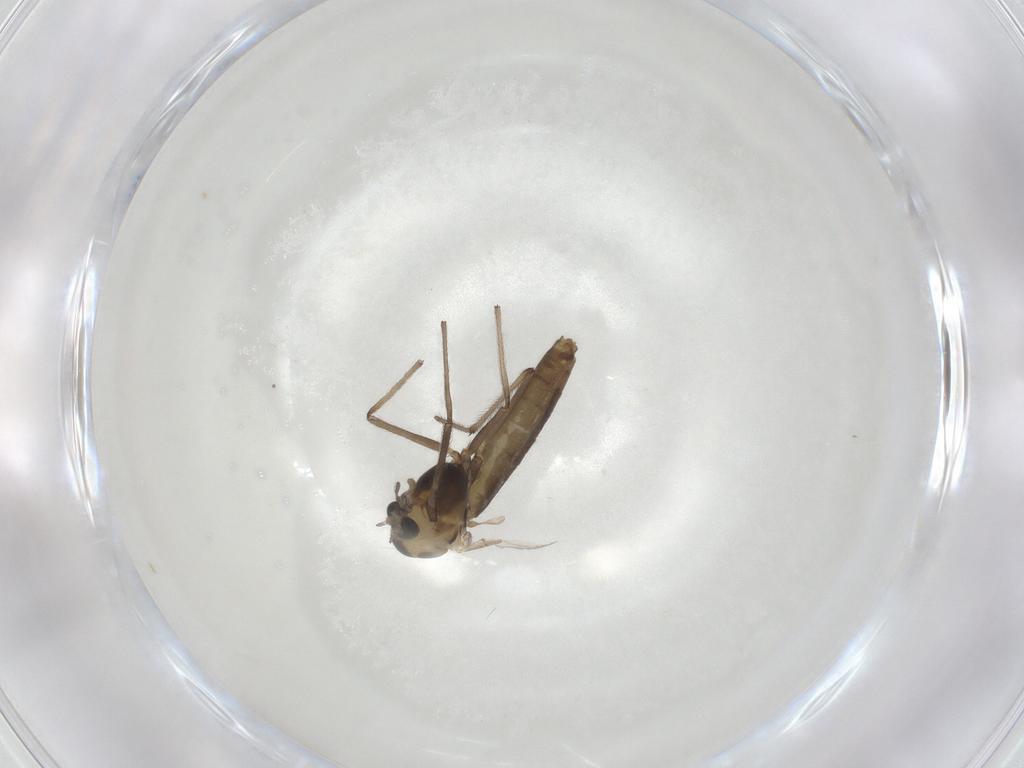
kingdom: Animalia
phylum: Arthropoda
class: Insecta
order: Diptera
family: Chironomidae
